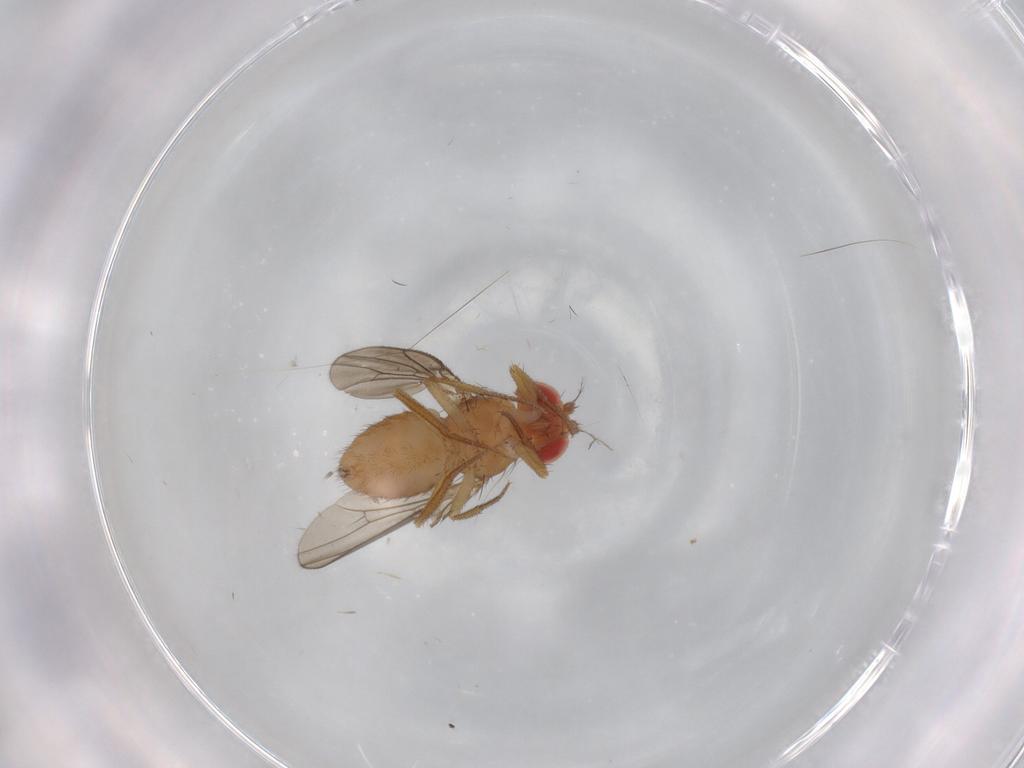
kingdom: Animalia
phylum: Arthropoda
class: Insecta
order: Diptera
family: Drosophilidae
